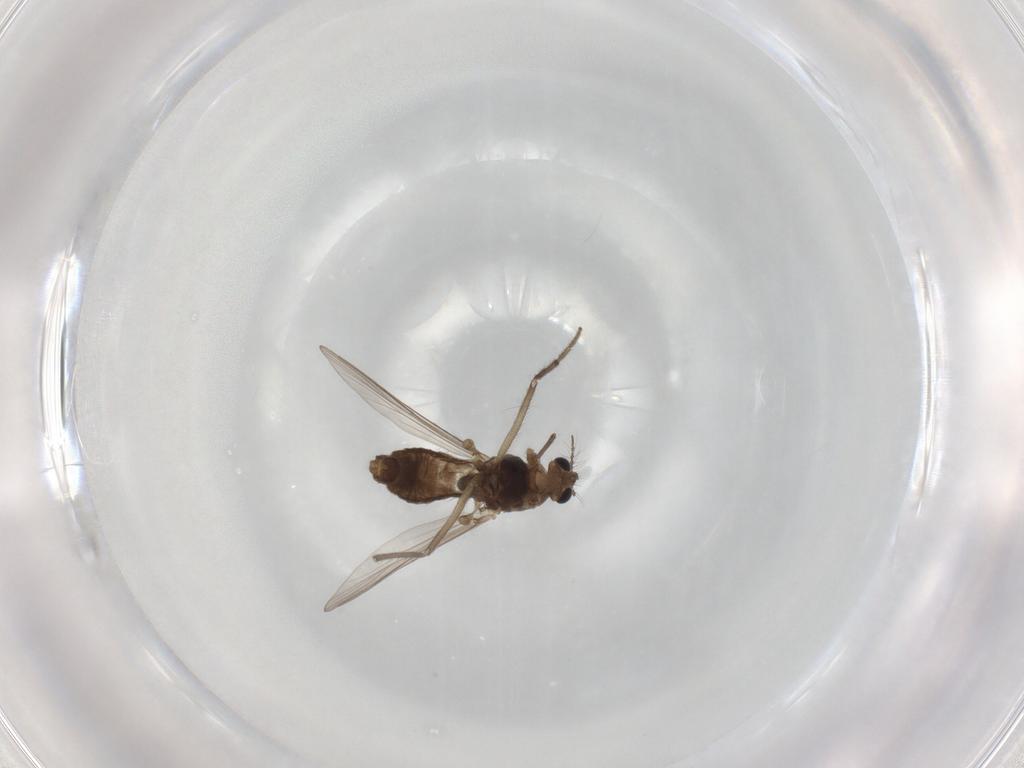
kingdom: Animalia
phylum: Arthropoda
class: Insecta
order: Diptera
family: Chironomidae
